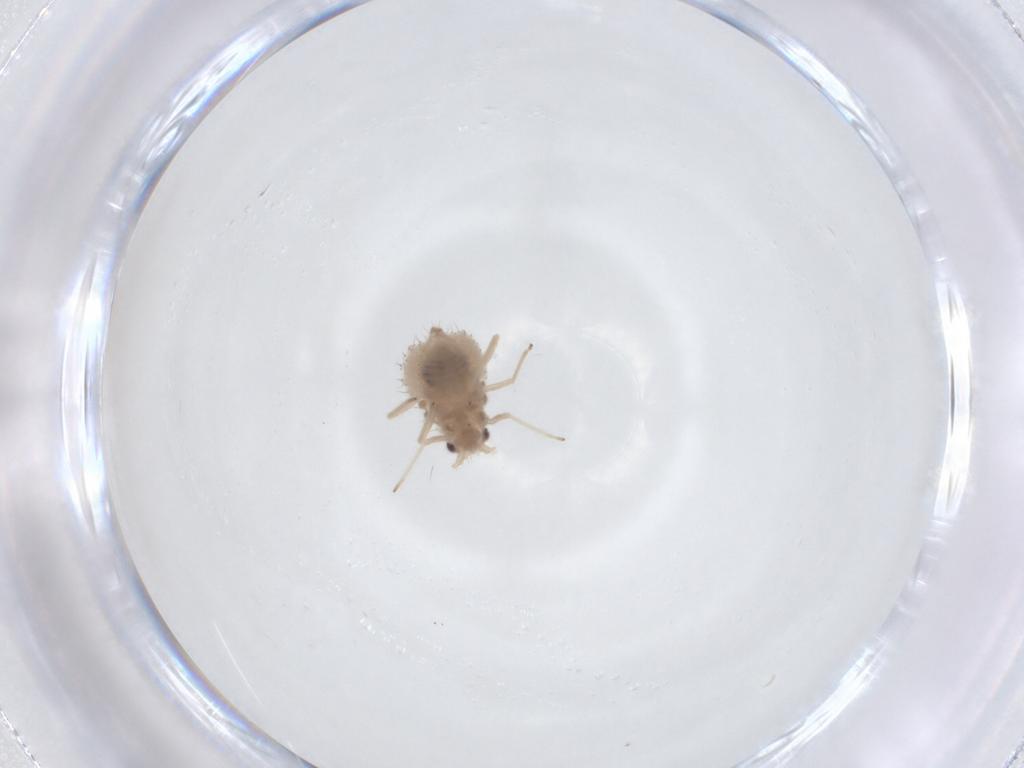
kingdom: Animalia
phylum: Arthropoda
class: Insecta
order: Hemiptera
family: Aphididae
